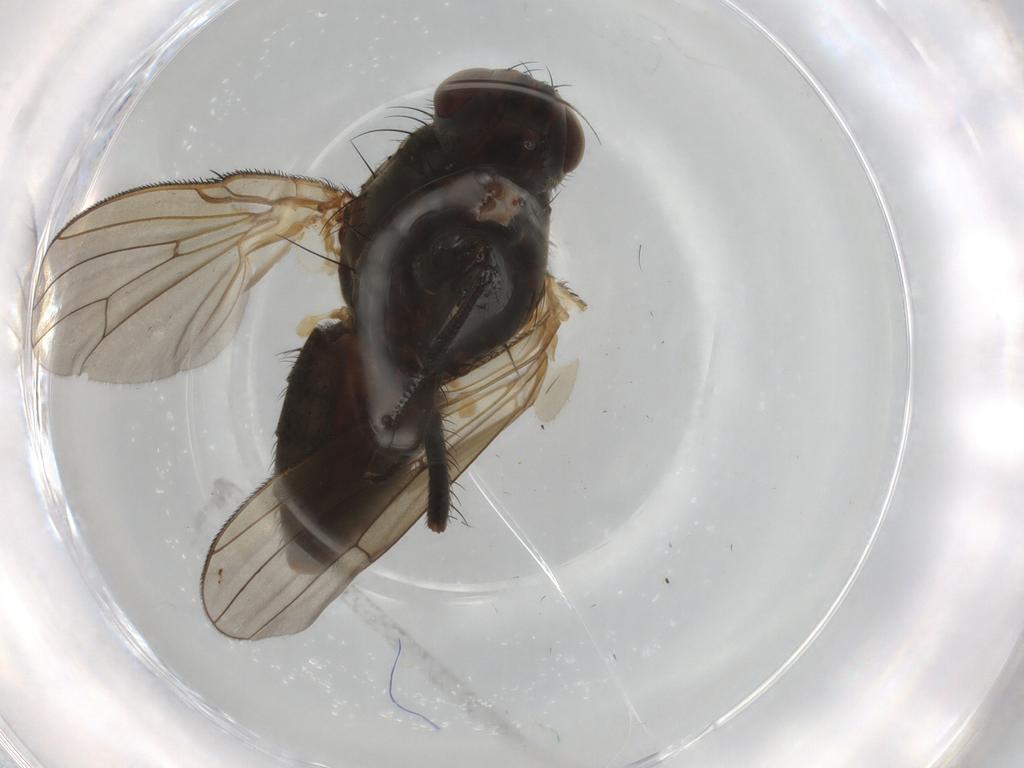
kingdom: Animalia
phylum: Arthropoda
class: Insecta
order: Diptera
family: Anthomyiidae
